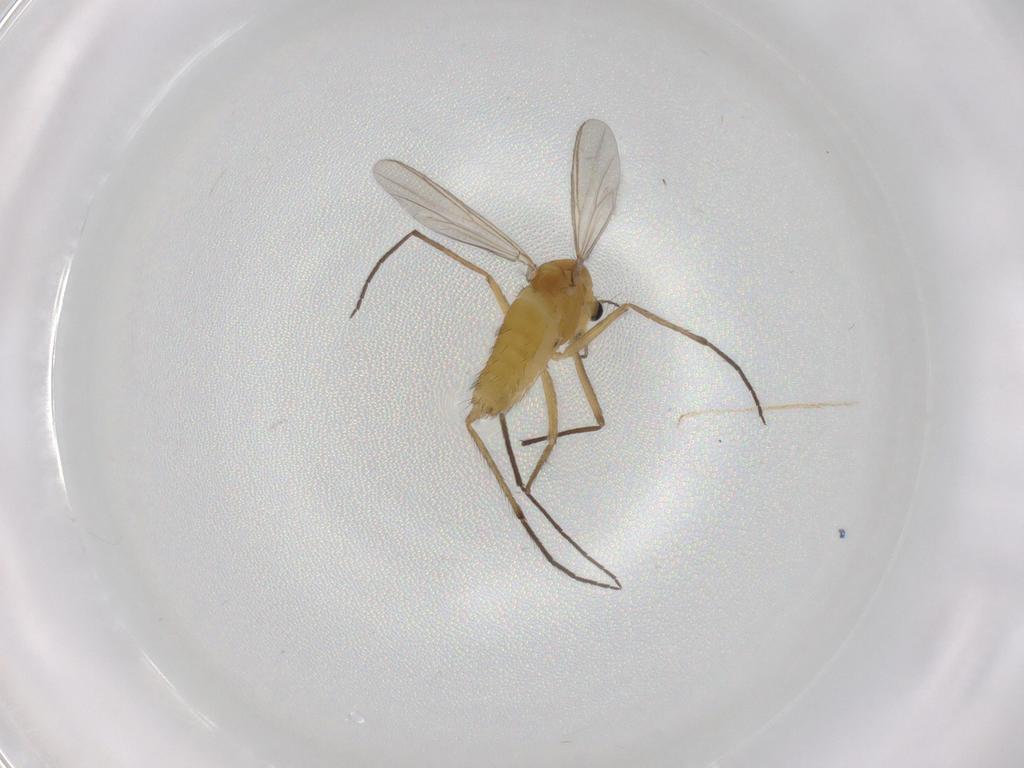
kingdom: Animalia
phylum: Arthropoda
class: Insecta
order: Diptera
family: Chironomidae
